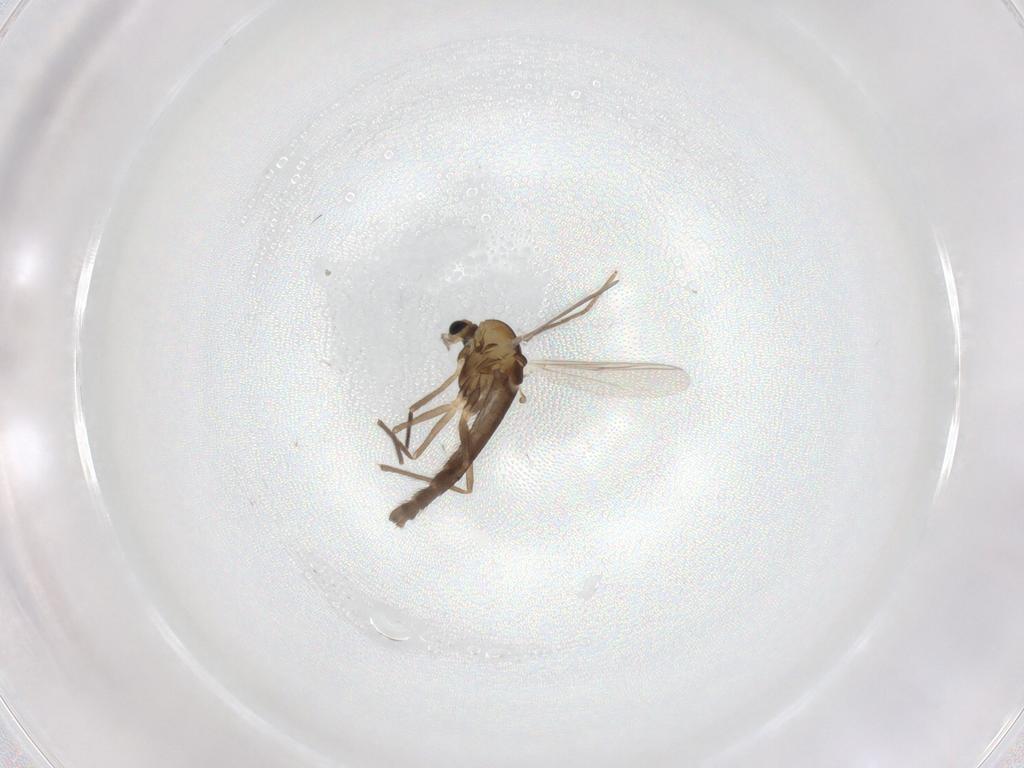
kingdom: Animalia
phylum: Arthropoda
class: Insecta
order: Diptera
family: Chironomidae
